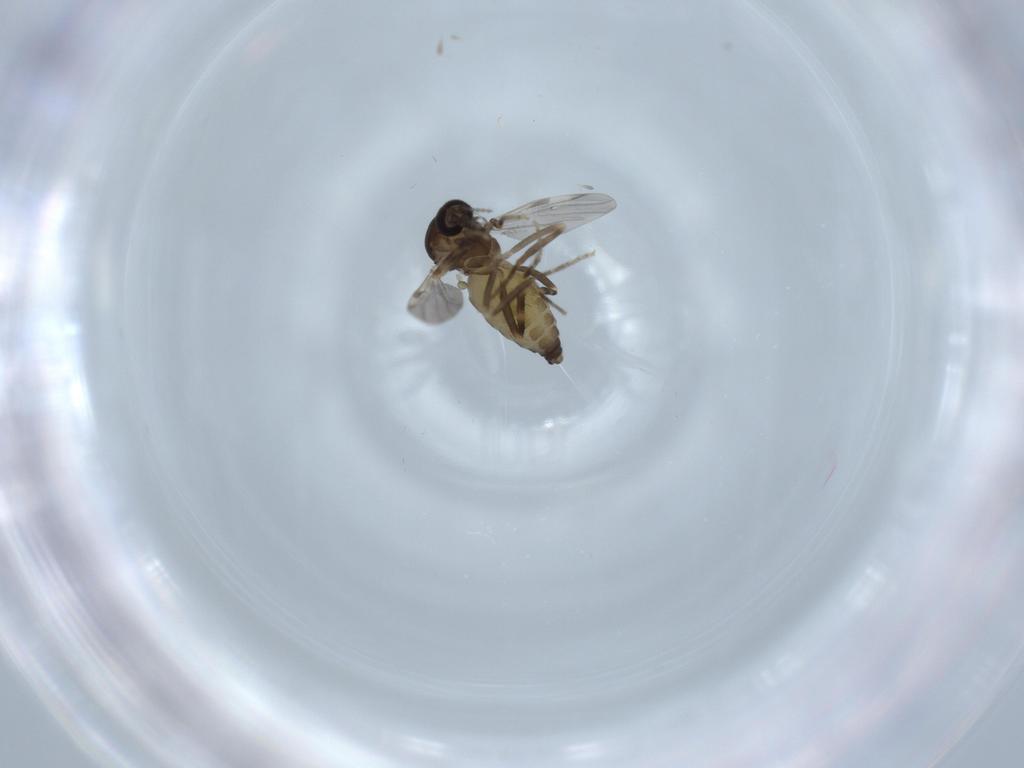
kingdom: Animalia
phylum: Arthropoda
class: Insecta
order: Diptera
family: Ceratopogonidae
